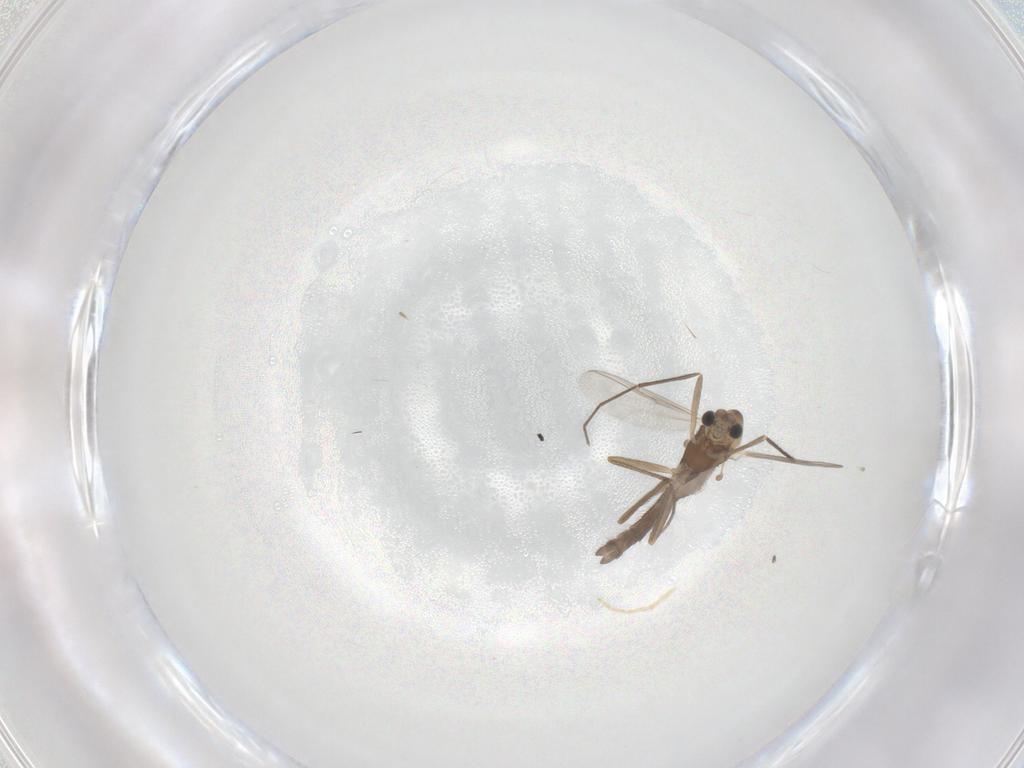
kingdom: Animalia
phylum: Arthropoda
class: Insecta
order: Diptera
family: Chironomidae
